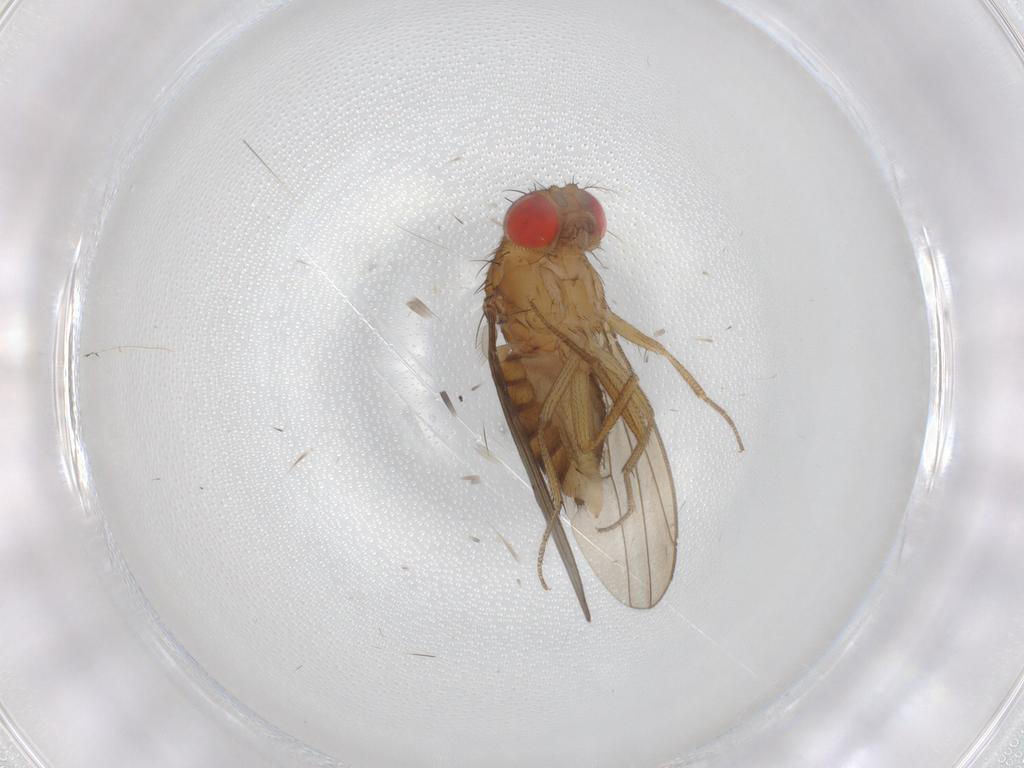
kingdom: Animalia
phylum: Arthropoda
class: Insecta
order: Diptera
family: Drosophilidae
